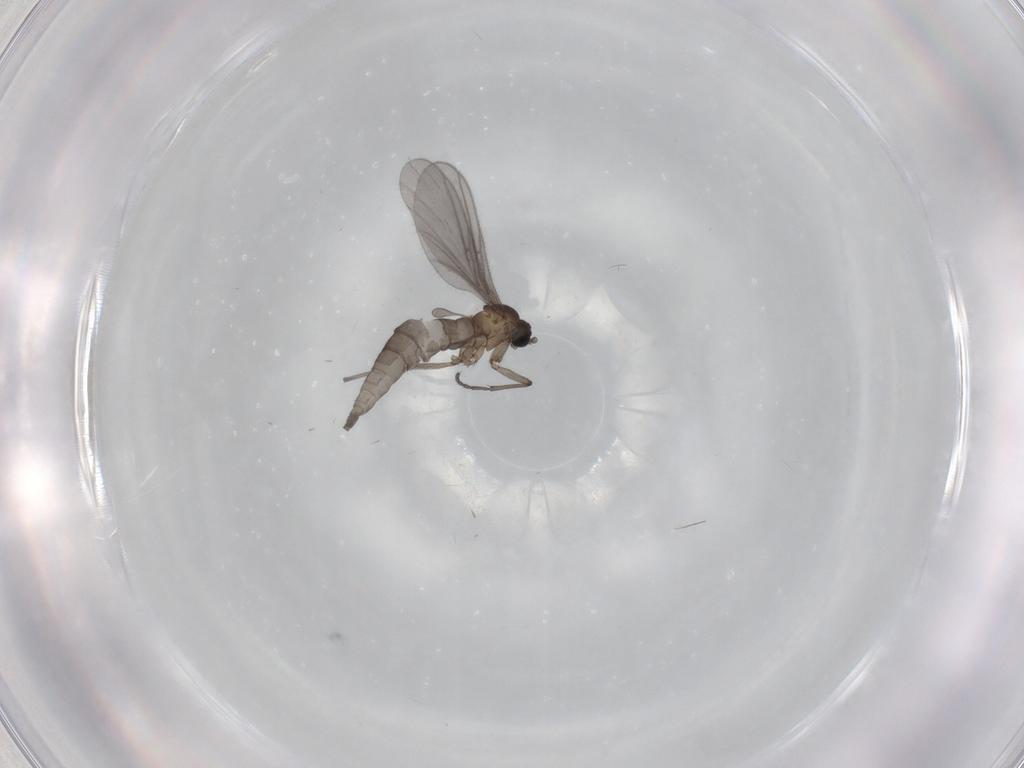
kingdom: Animalia
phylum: Arthropoda
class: Insecta
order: Diptera
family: Sciaridae
